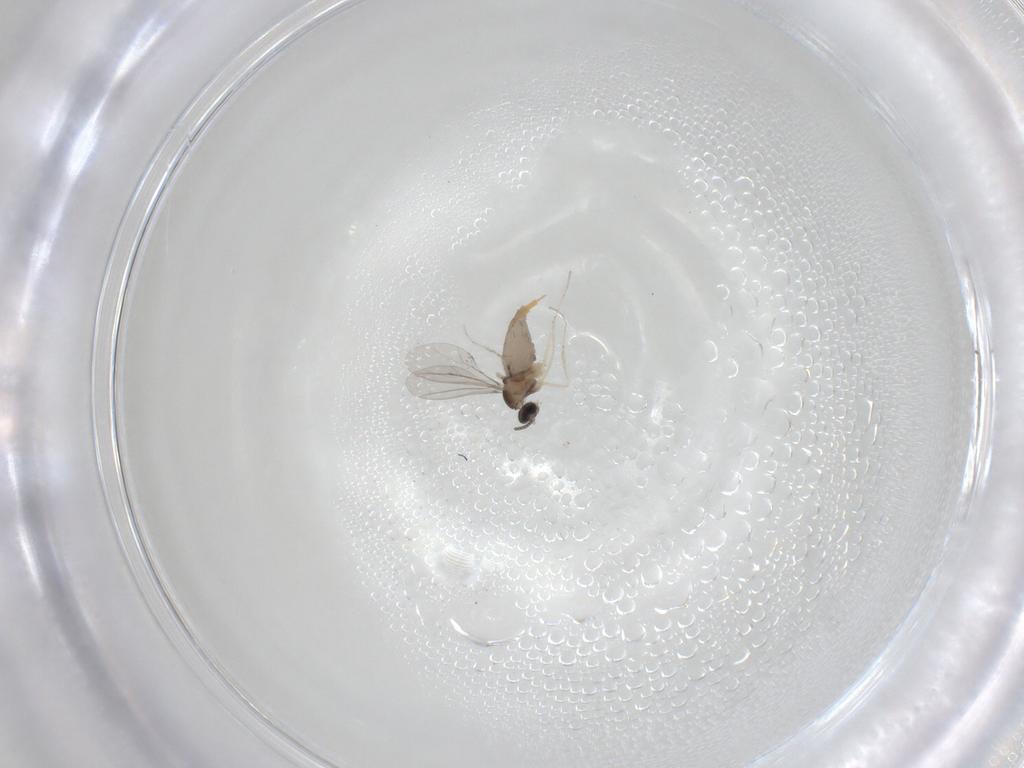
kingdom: Animalia
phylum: Arthropoda
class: Insecta
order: Diptera
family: Cecidomyiidae
